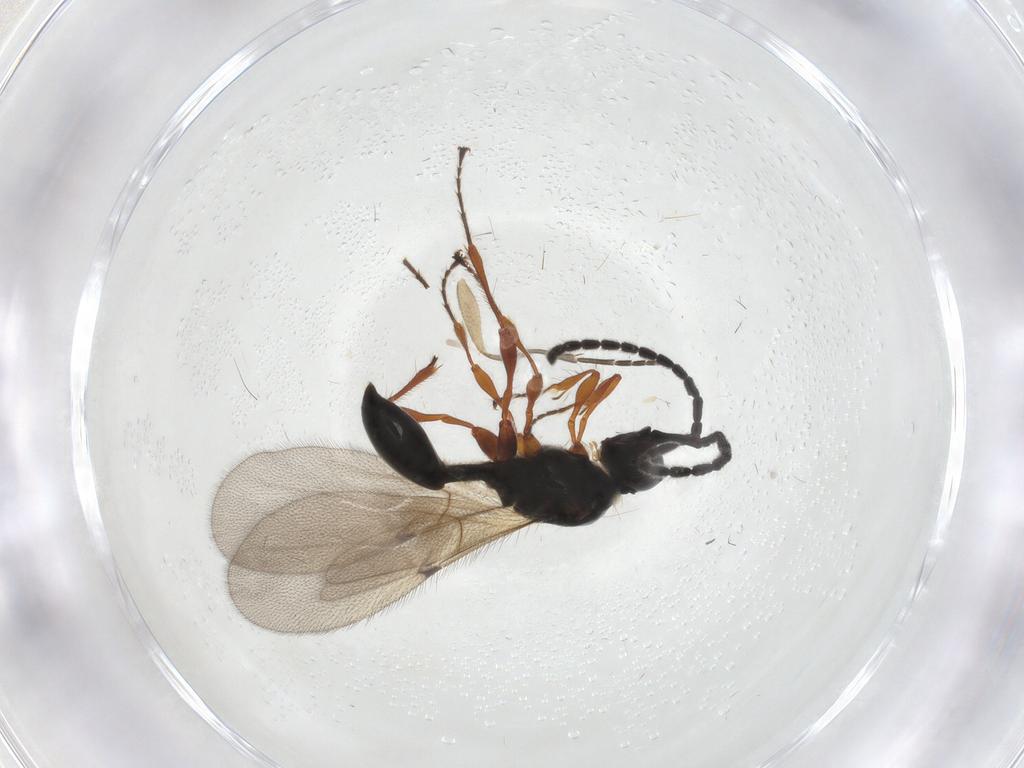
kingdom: Animalia
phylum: Arthropoda
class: Insecta
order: Hymenoptera
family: Diapriidae
